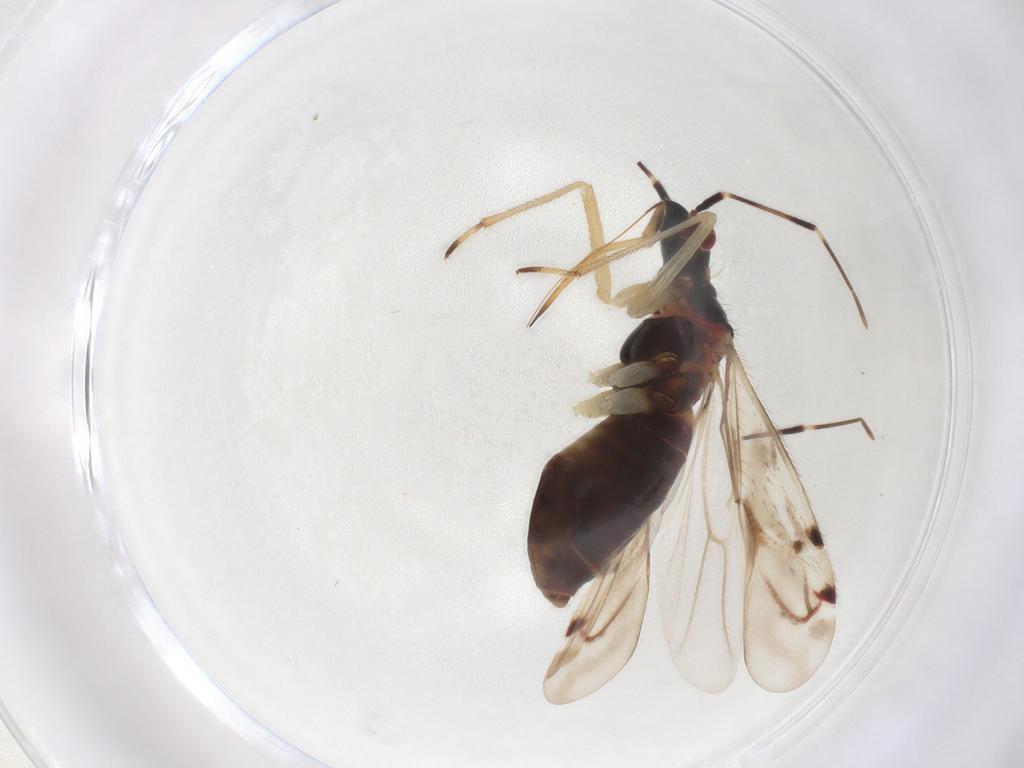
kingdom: Animalia
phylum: Arthropoda
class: Insecta
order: Hemiptera
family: Miridae
